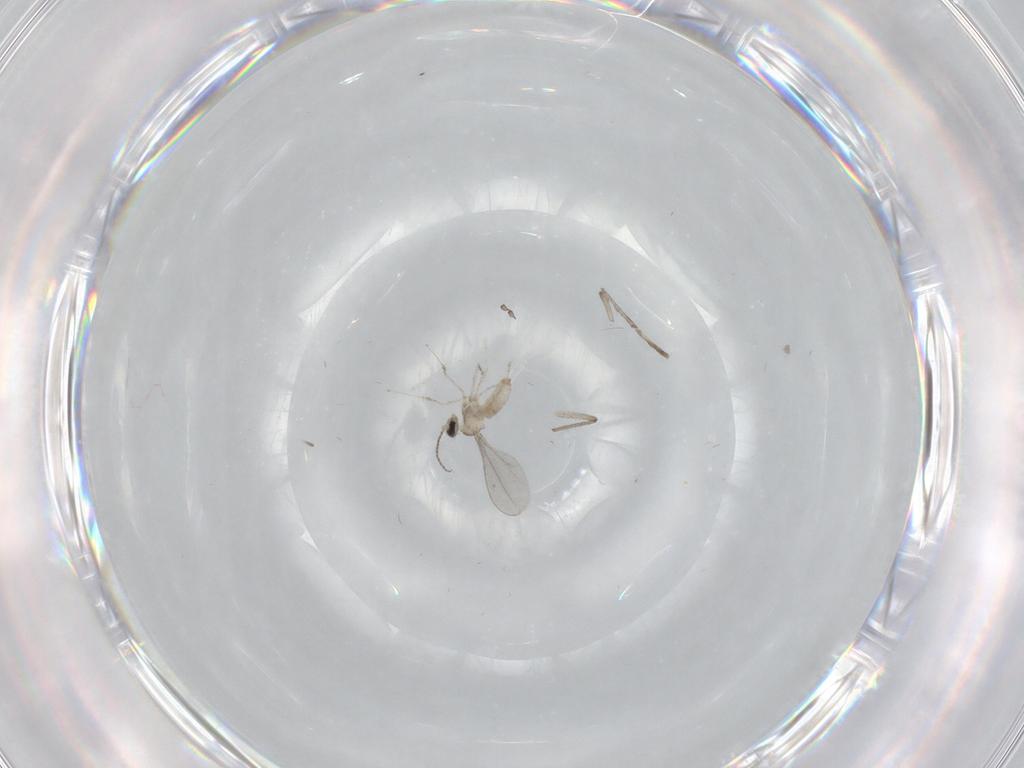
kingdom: Animalia
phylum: Arthropoda
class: Insecta
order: Diptera
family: Psychodidae
